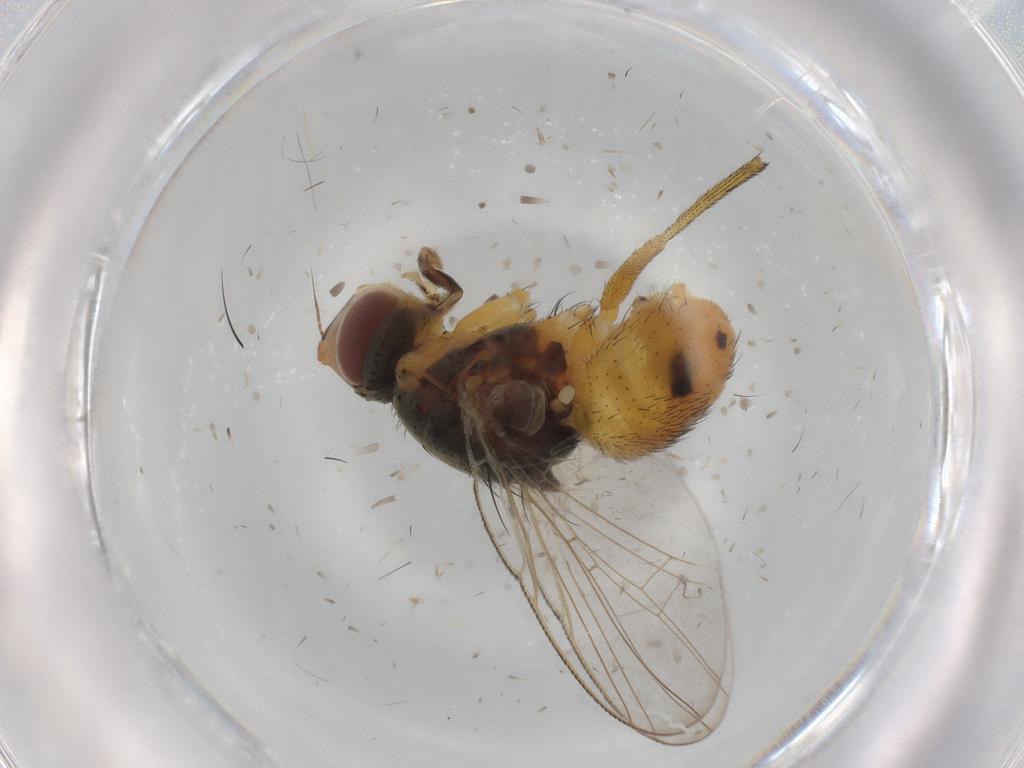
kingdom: Animalia
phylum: Arthropoda
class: Insecta
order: Diptera
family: Muscidae
